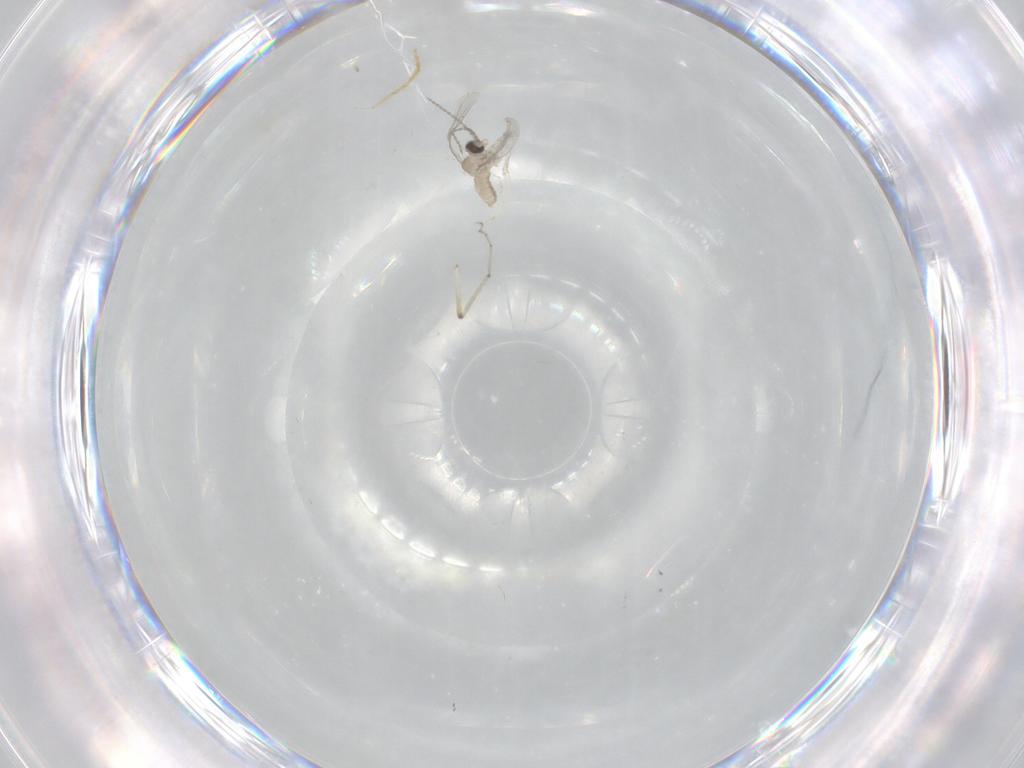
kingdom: Animalia
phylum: Arthropoda
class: Insecta
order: Diptera
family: Ceratopogonidae
